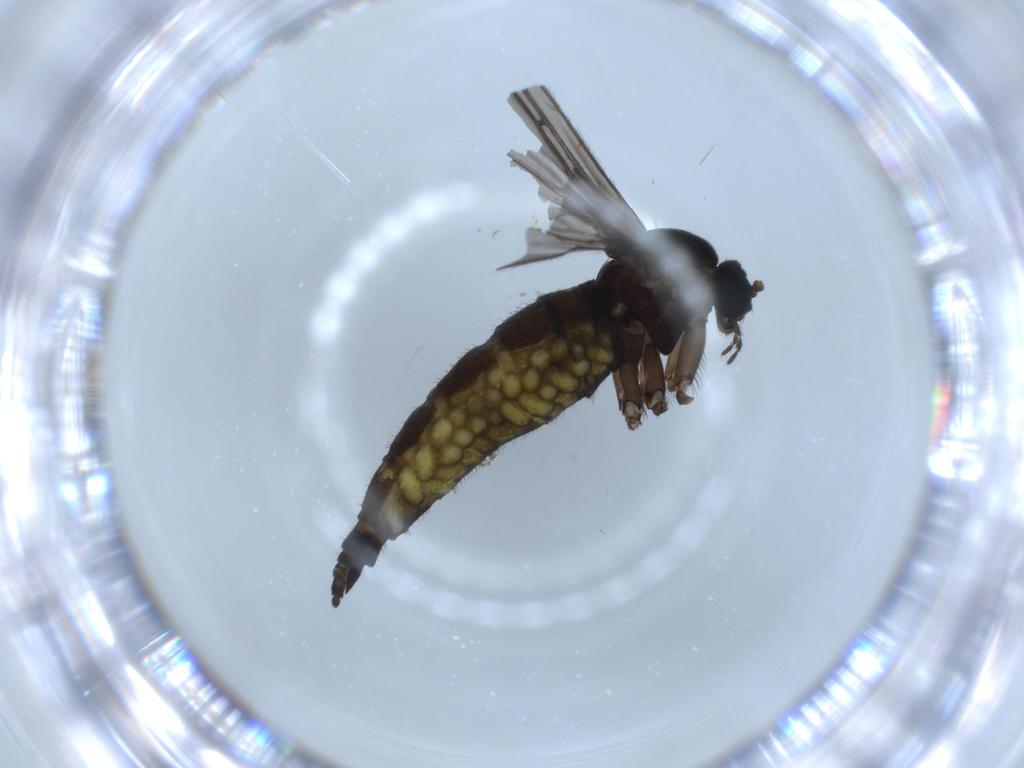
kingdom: Animalia
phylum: Arthropoda
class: Insecta
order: Diptera
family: Sciaridae
